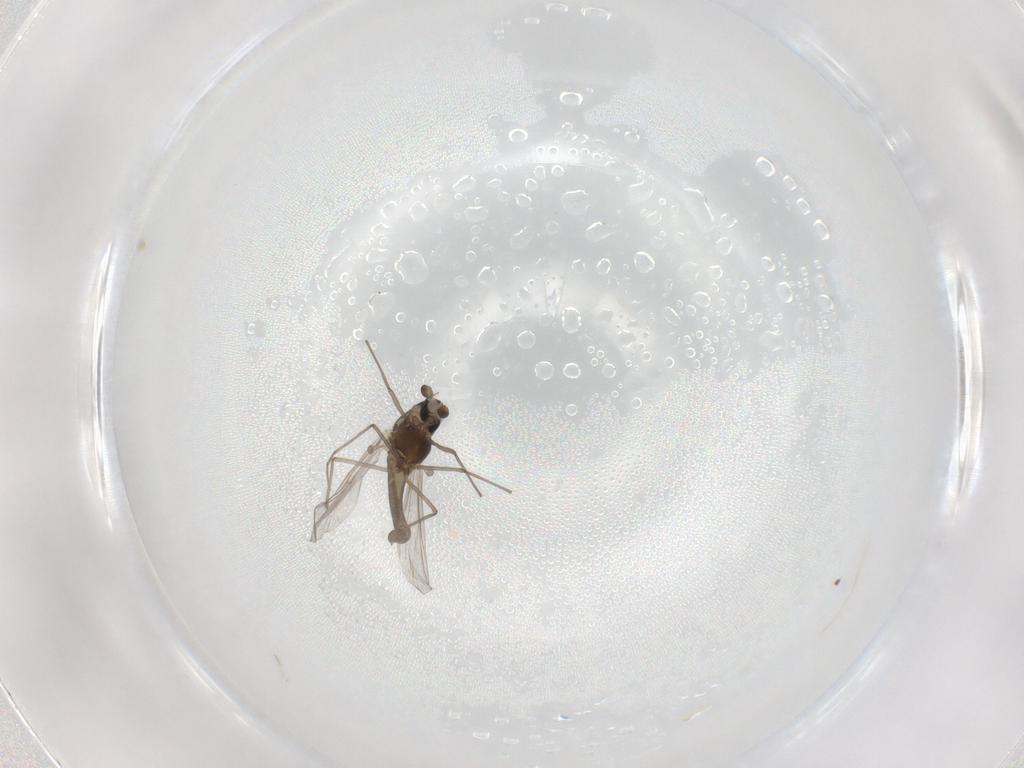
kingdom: Animalia
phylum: Arthropoda
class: Insecta
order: Diptera
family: Chironomidae
